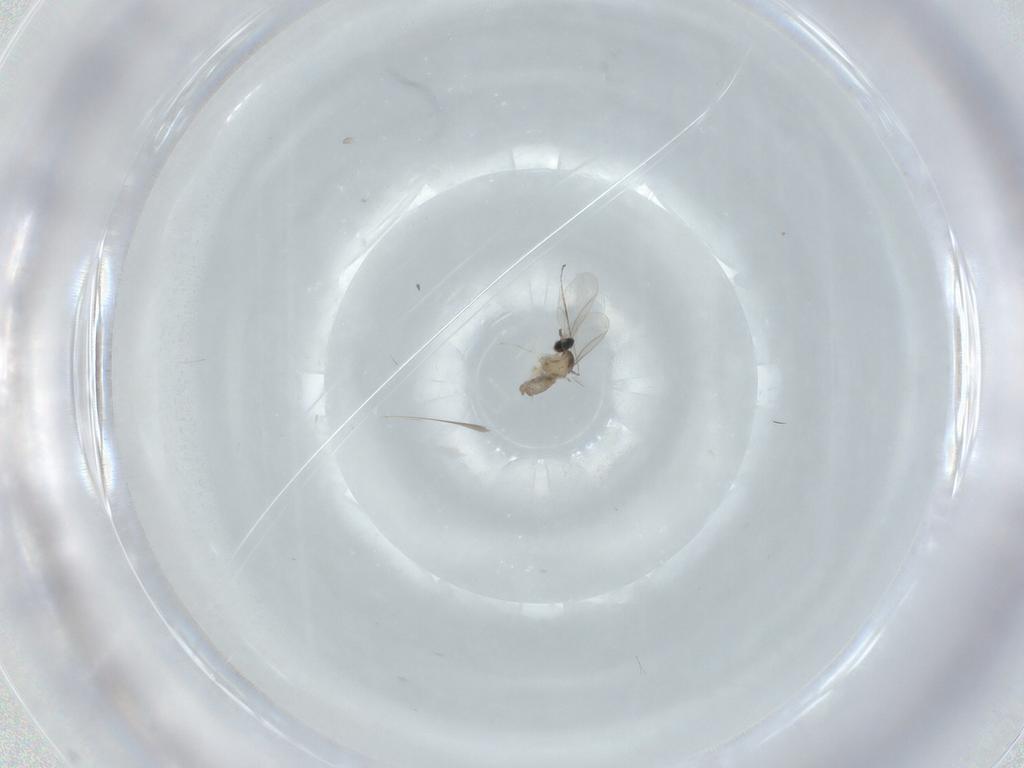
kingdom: Animalia
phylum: Arthropoda
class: Insecta
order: Diptera
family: Cecidomyiidae
